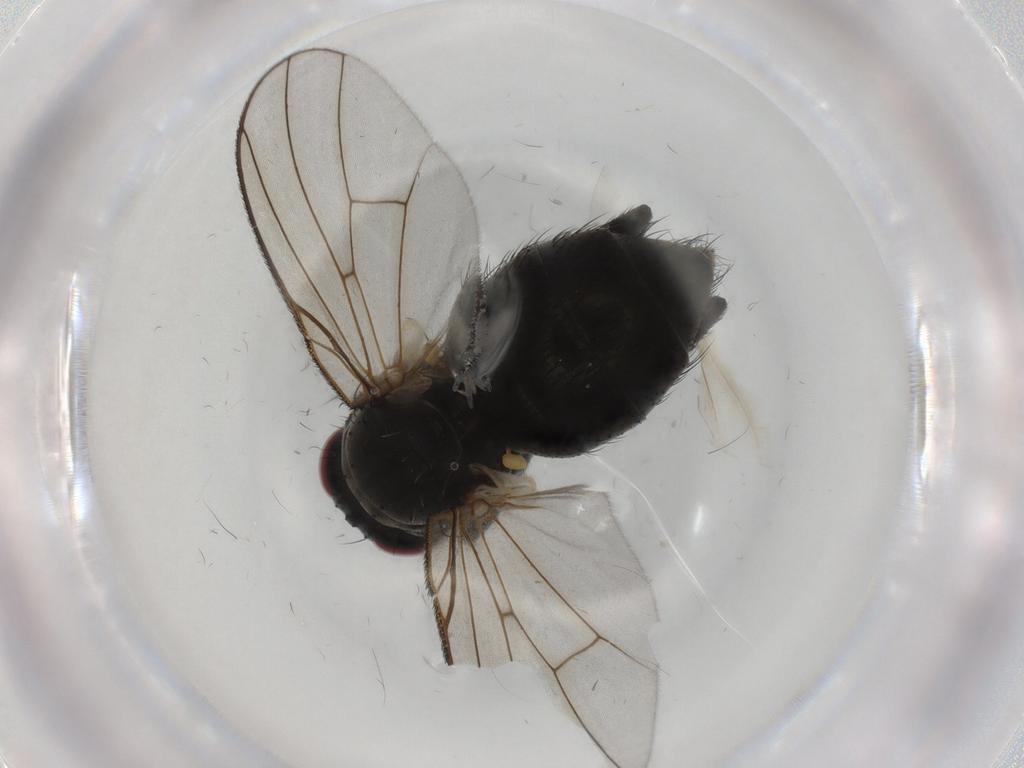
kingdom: Animalia
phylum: Arthropoda
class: Insecta
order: Diptera
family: Muscidae
